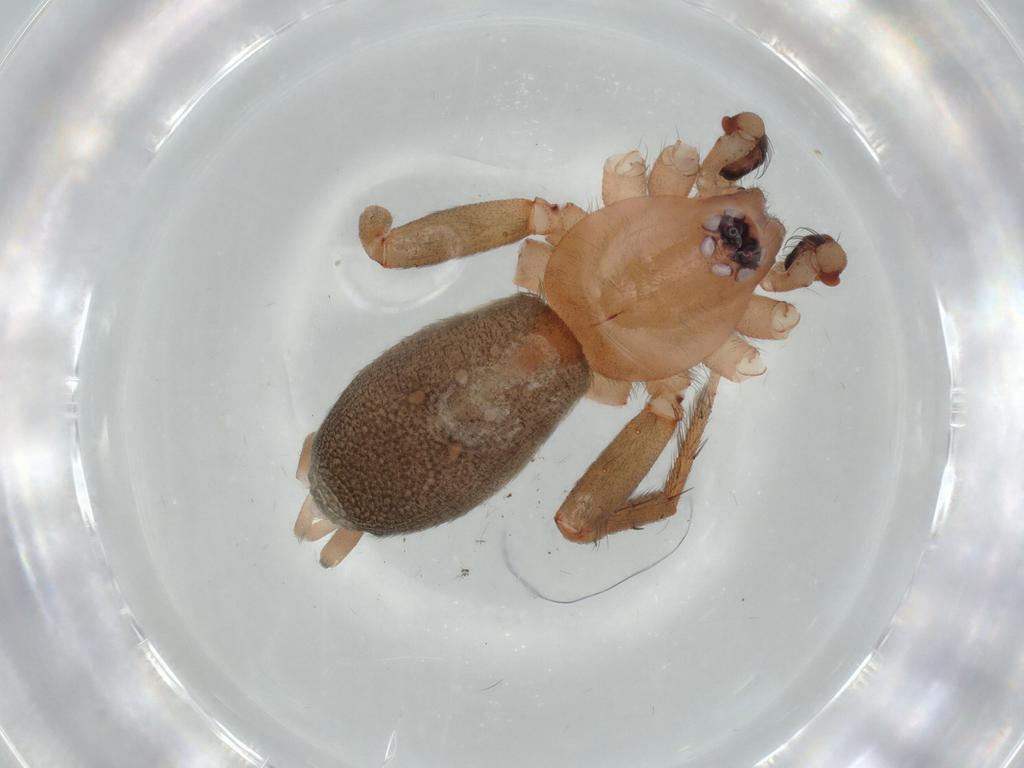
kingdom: Animalia
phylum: Arthropoda
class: Arachnida
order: Araneae
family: Gnaphosidae
